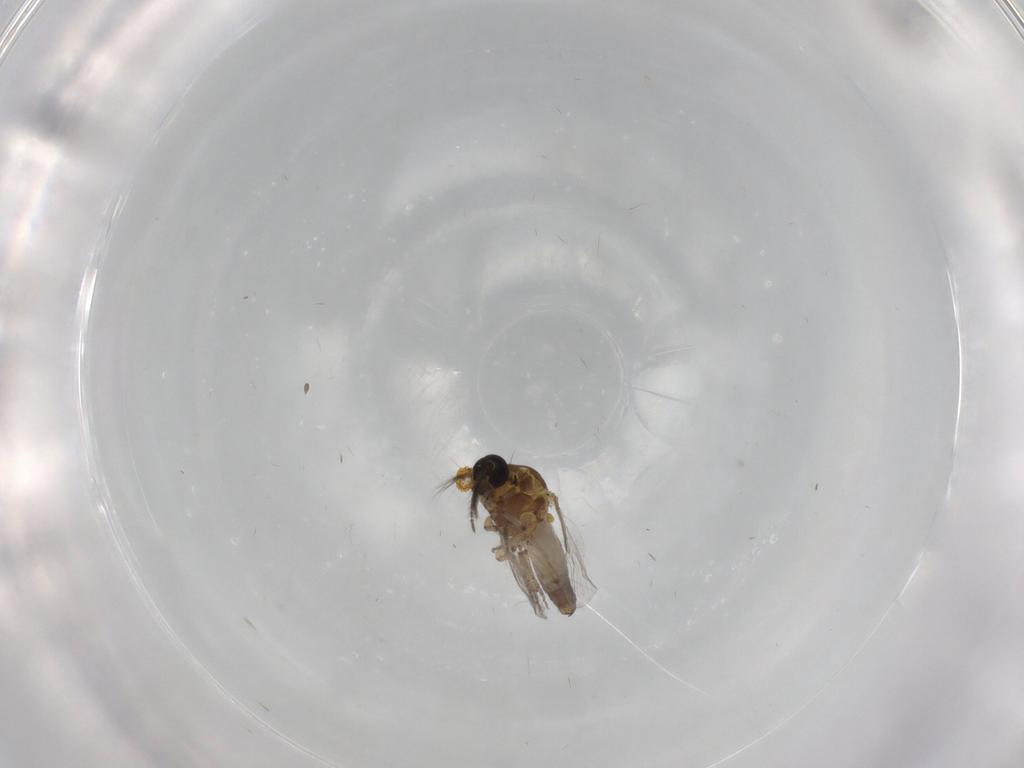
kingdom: Animalia
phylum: Arthropoda
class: Insecta
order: Diptera
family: Ceratopogonidae
